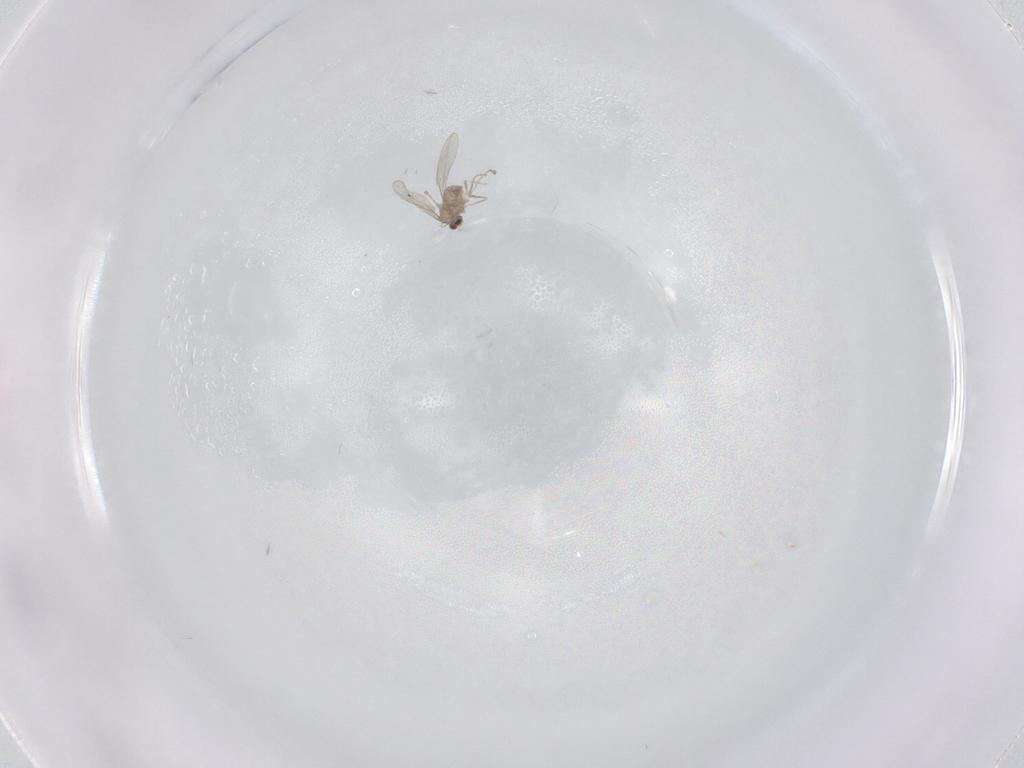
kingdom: Animalia
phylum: Arthropoda
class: Insecta
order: Diptera
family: Cecidomyiidae
